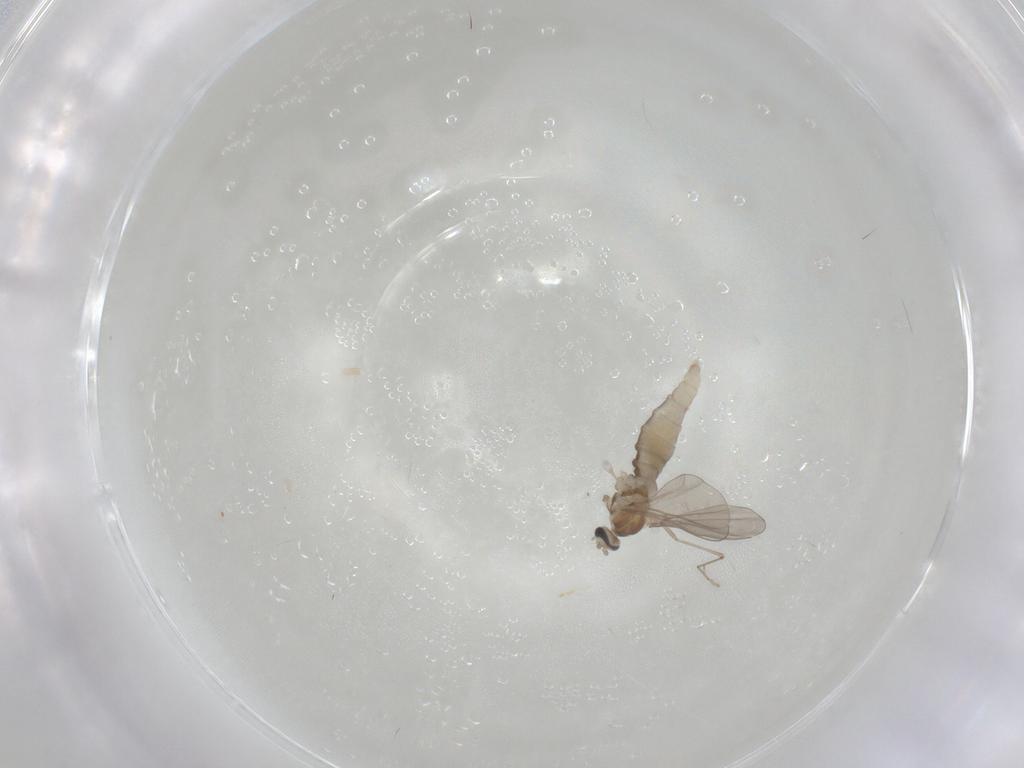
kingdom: Animalia
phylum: Arthropoda
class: Insecta
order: Diptera
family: Cecidomyiidae
